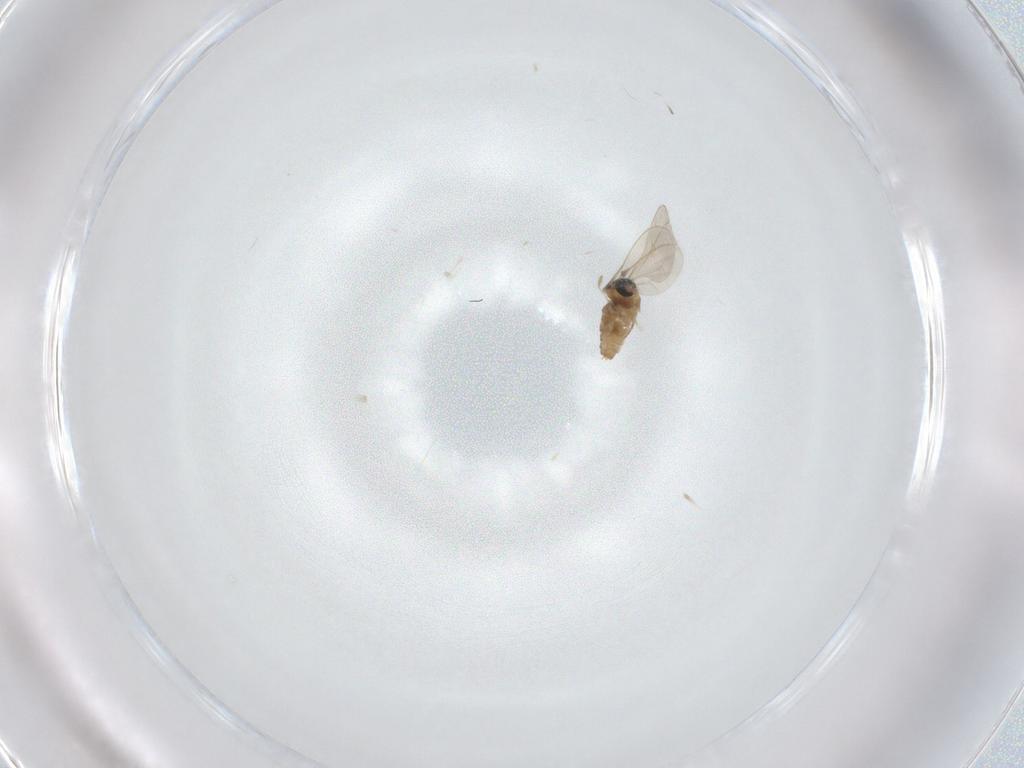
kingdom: Animalia
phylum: Arthropoda
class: Insecta
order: Diptera
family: Cecidomyiidae
